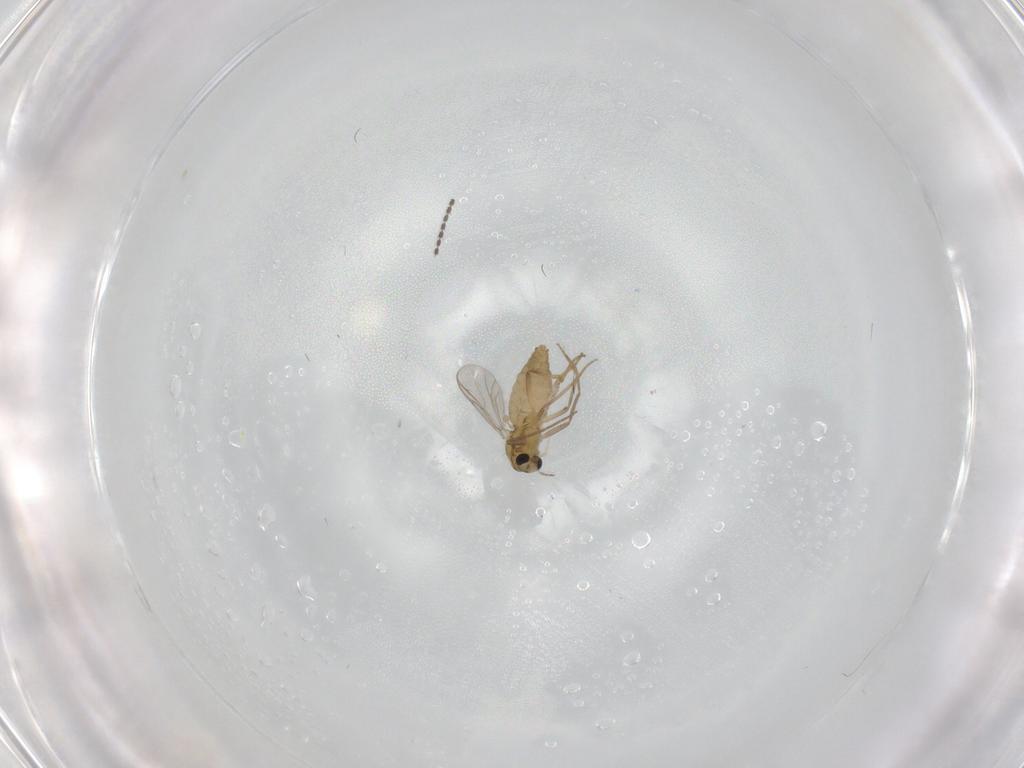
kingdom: Animalia
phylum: Arthropoda
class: Insecta
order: Diptera
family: Chironomidae
